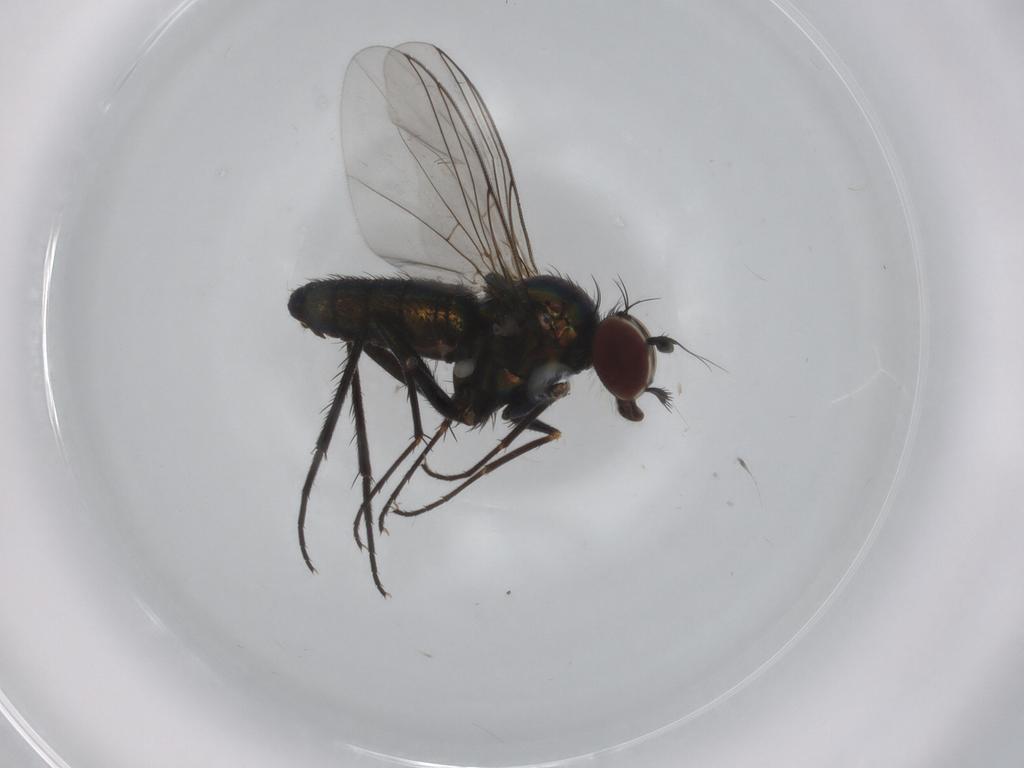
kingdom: Animalia
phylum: Arthropoda
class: Insecta
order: Diptera
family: Dolichopodidae
